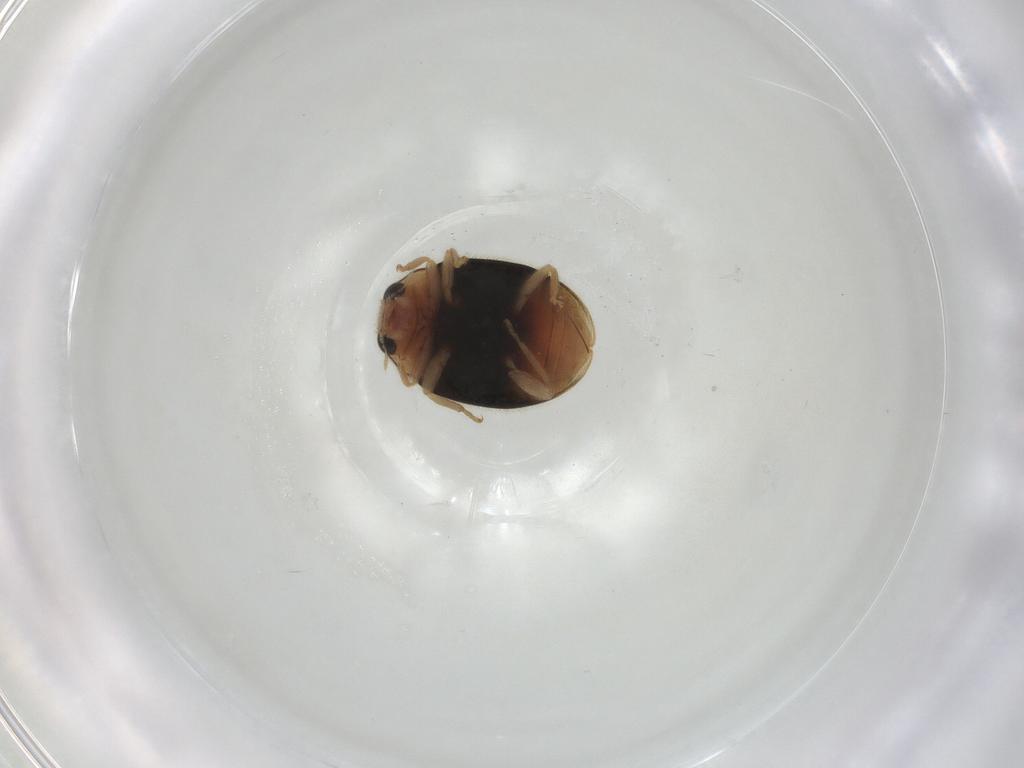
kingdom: Animalia
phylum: Arthropoda
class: Insecta
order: Coleoptera
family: Coccinellidae
